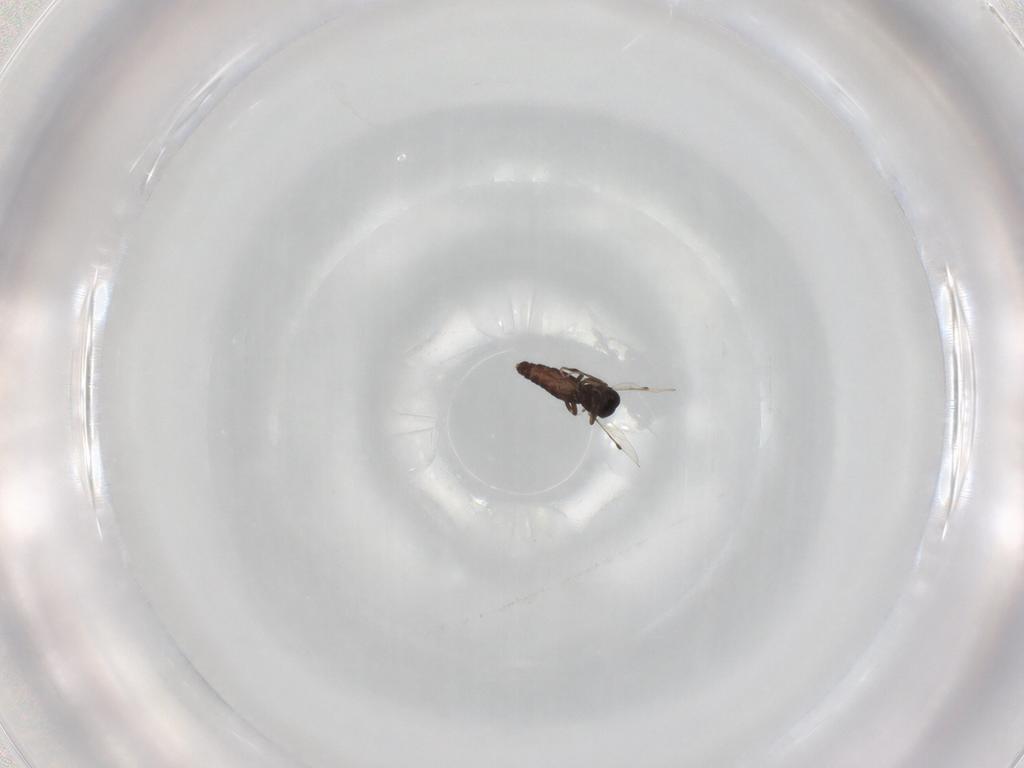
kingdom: Animalia
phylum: Arthropoda
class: Insecta
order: Diptera
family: Ceratopogonidae
